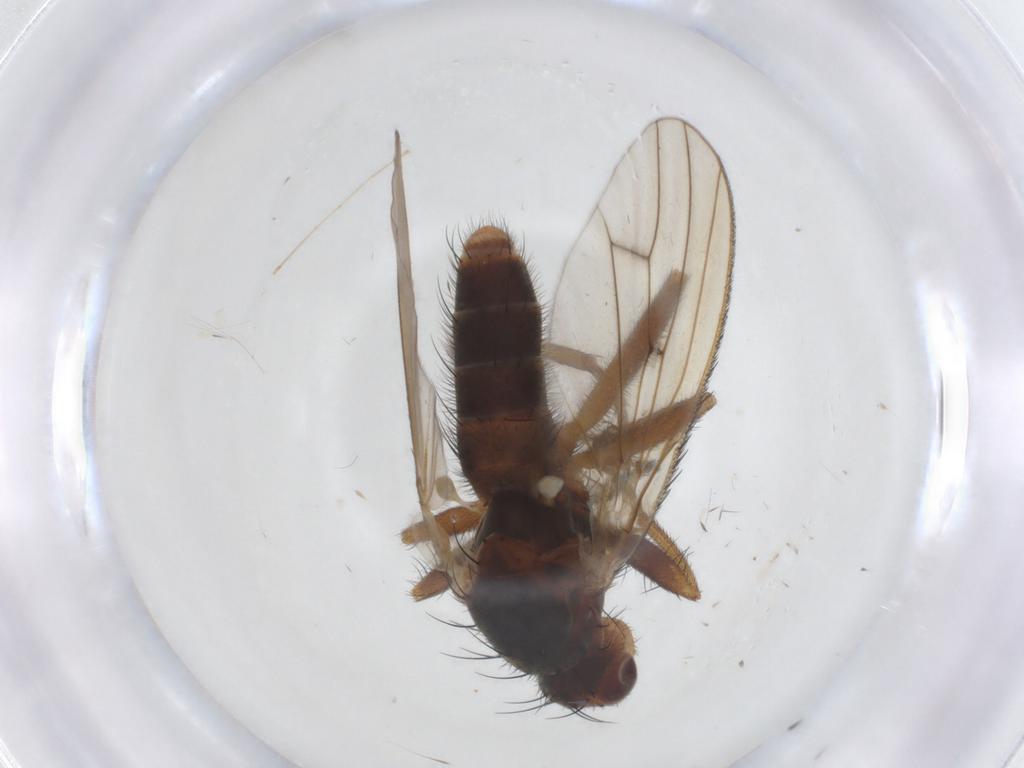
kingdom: Animalia
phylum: Arthropoda
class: Insecta
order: Diptera
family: Heleomyzidae
